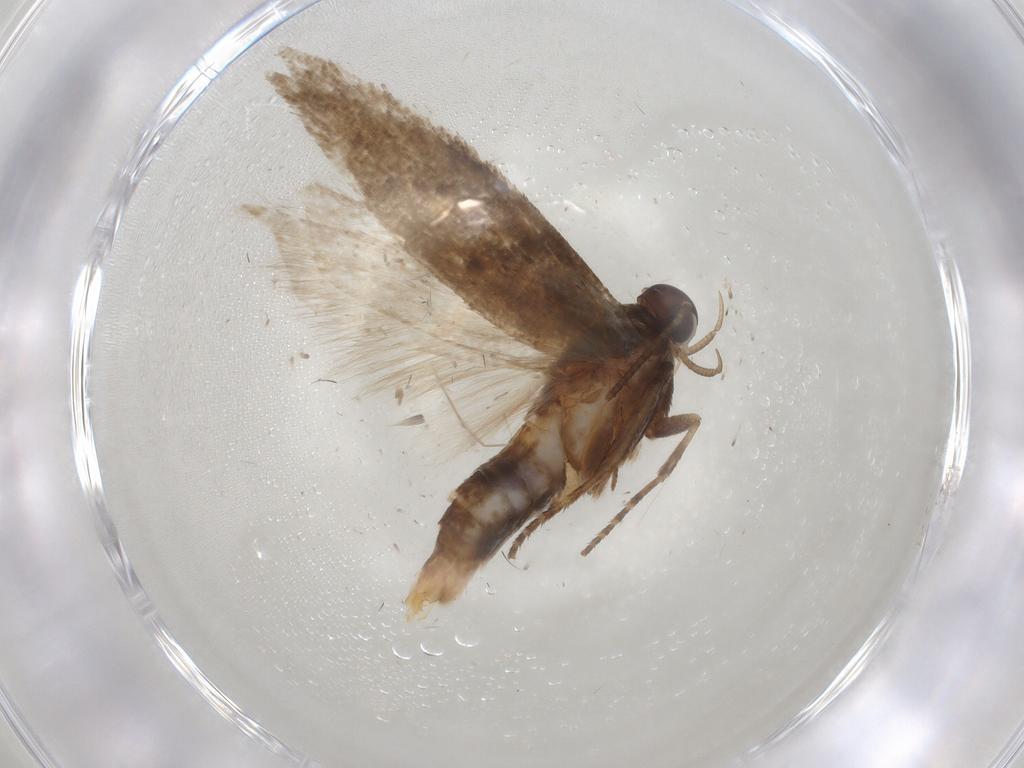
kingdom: Animalia
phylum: Arthropoda
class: Insecta
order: Lepidoptera
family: Gelechiidae
